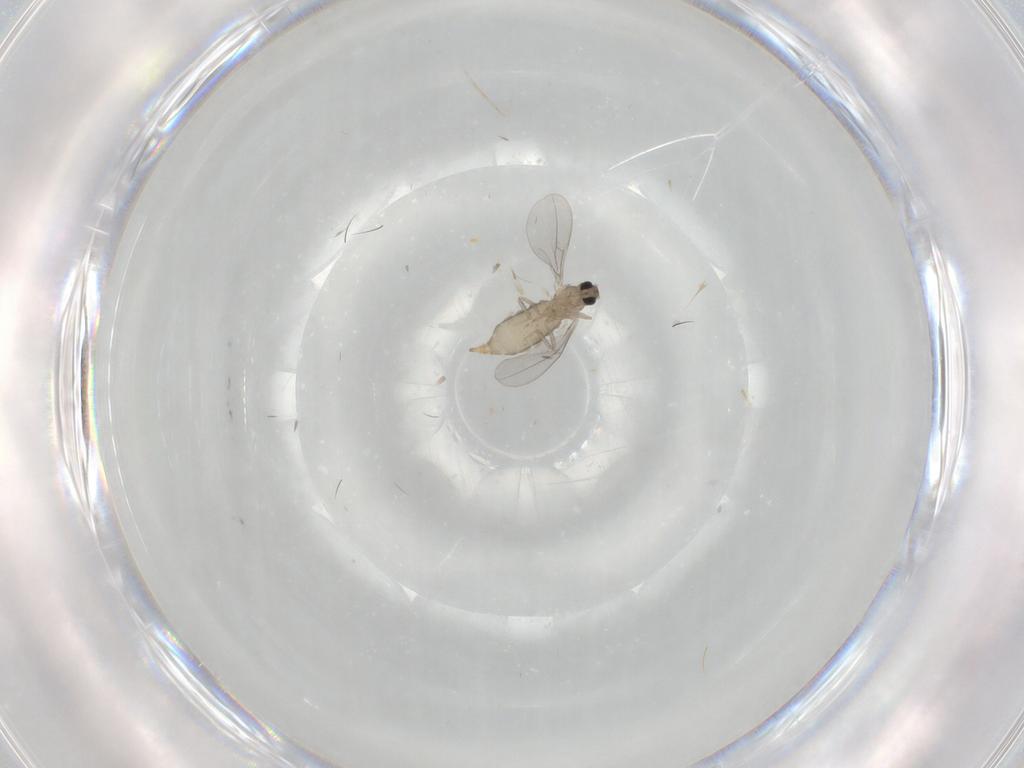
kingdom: Animalia
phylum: Arthropoda
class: Insecta
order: Diptera
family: Cecidomyiidae
